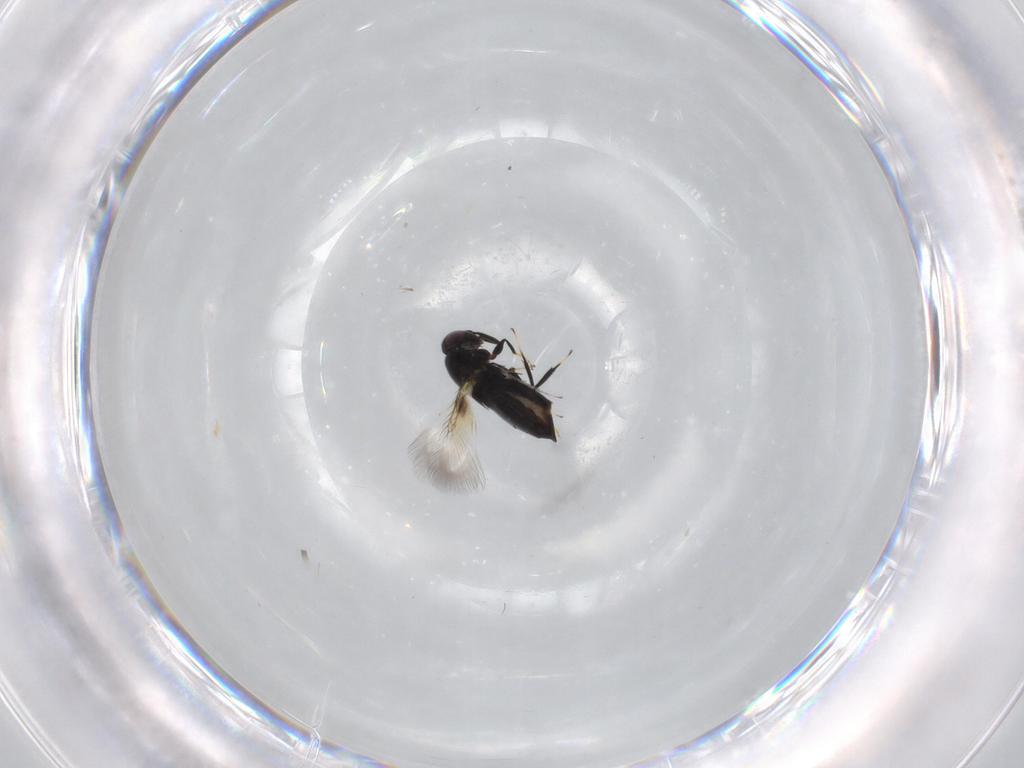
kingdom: Animalia
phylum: Arthropoda
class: Insecta
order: Hymenoptera
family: Signiphoridae
